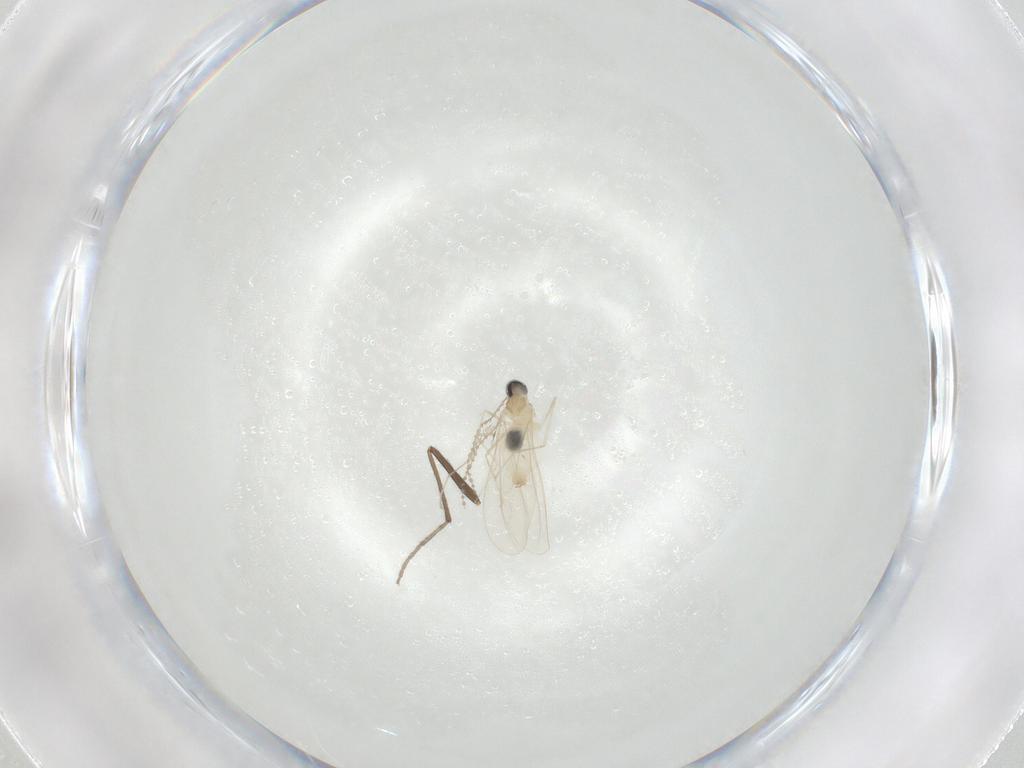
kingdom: Animalia
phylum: Arthropoda
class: Insecta
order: Diptera
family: Cecidomyiidae
